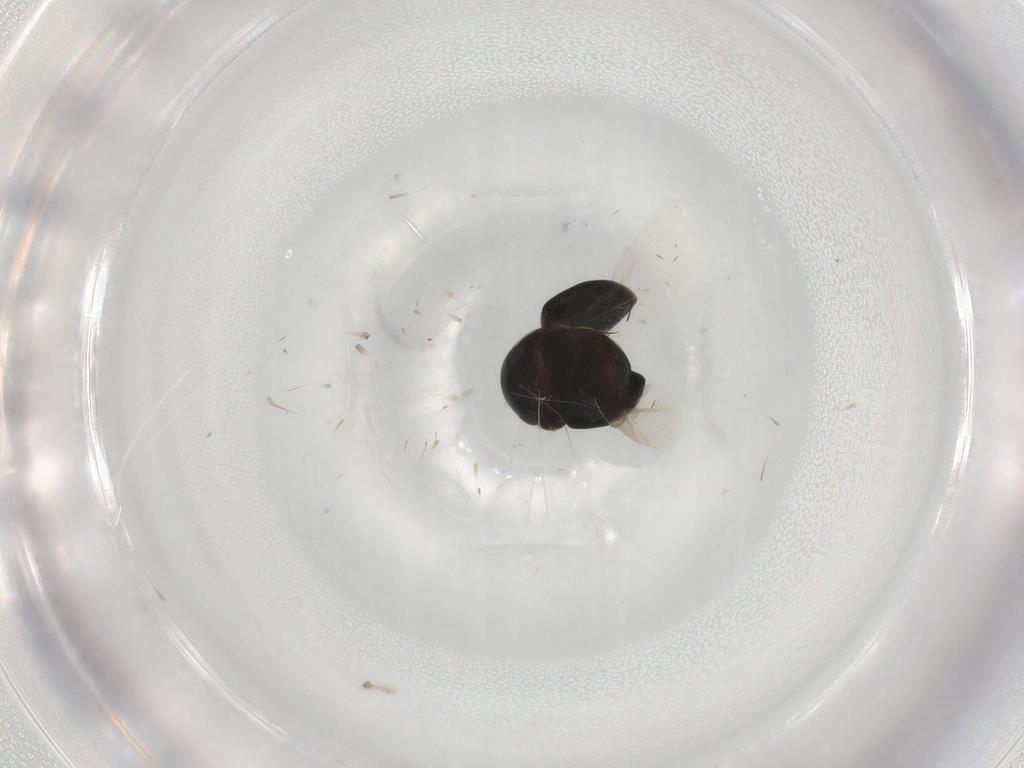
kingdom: Animalia
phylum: Arthropoda
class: Insecta
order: Coleoptera
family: Cybocephalidae
